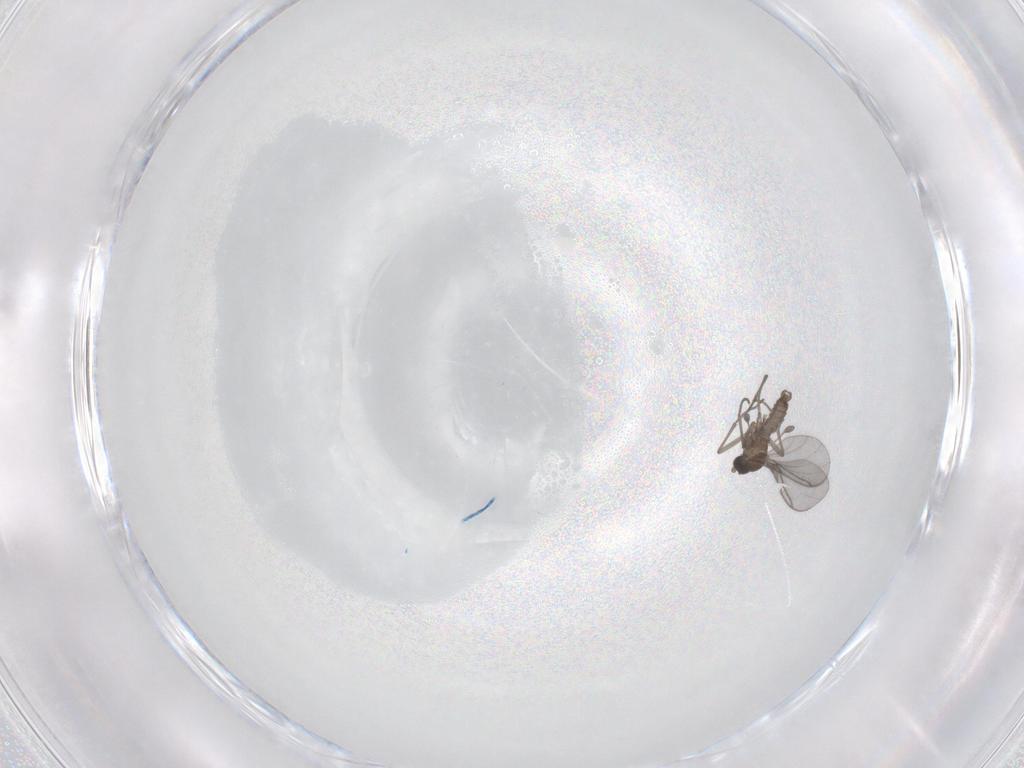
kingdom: Animalia
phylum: Arthropoda
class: Insecta
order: Diptera
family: Sciaridae
